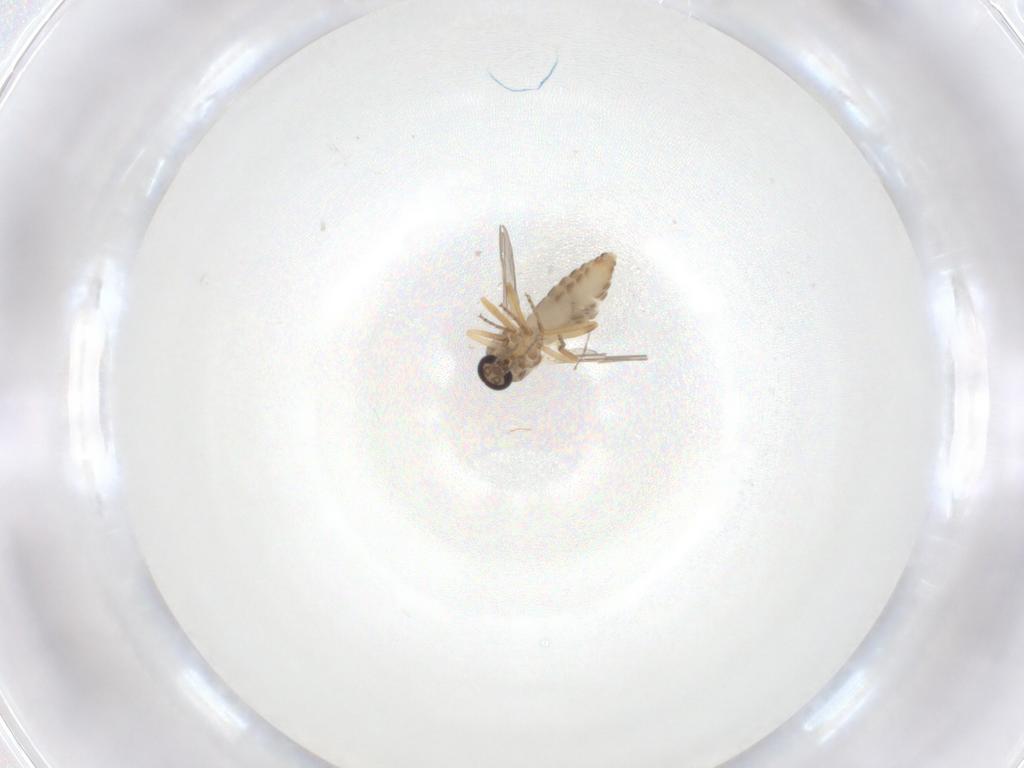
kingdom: Animalia
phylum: Arthropoda
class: Insecta
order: Diptera
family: Ceratopogonidae
